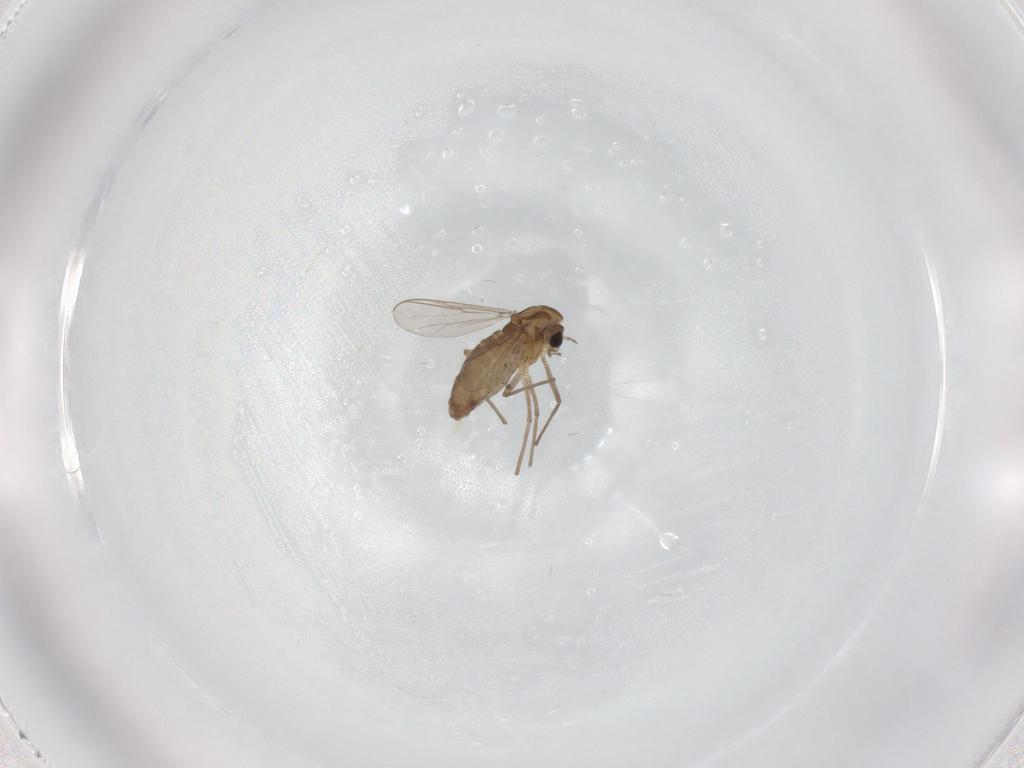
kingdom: Animalia
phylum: Arthropoda
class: Insecta
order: Diptera
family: Chironomidae
